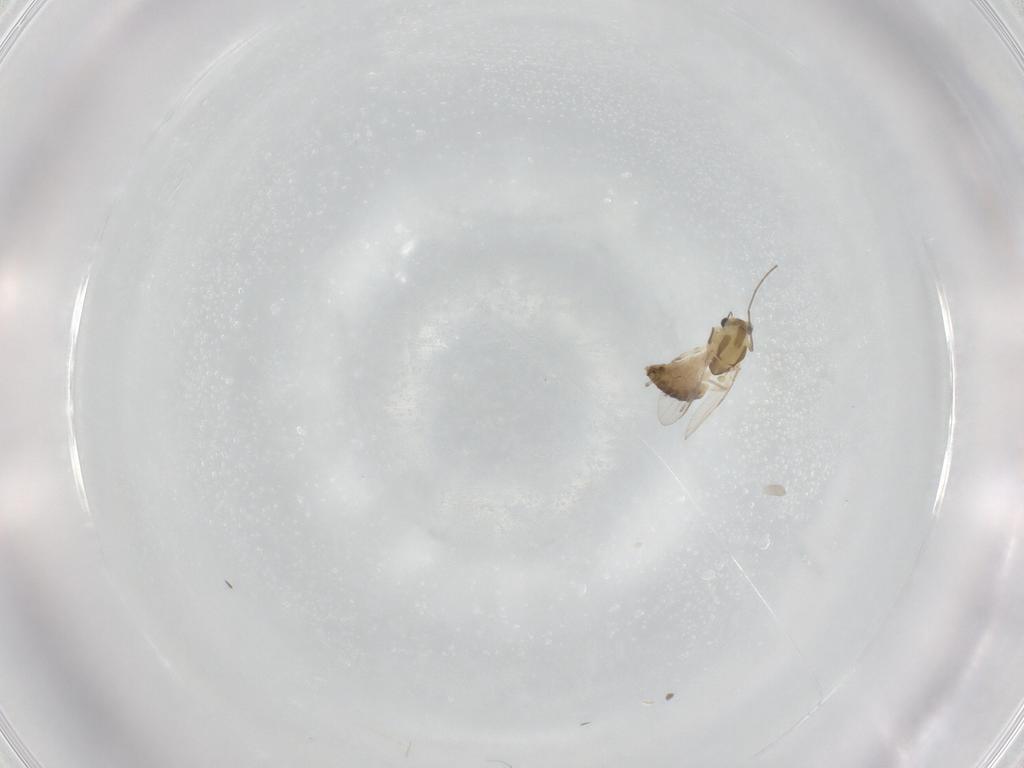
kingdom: Animalia
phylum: Arthropoda
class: Insecta
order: Diptera
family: Chironomidae
